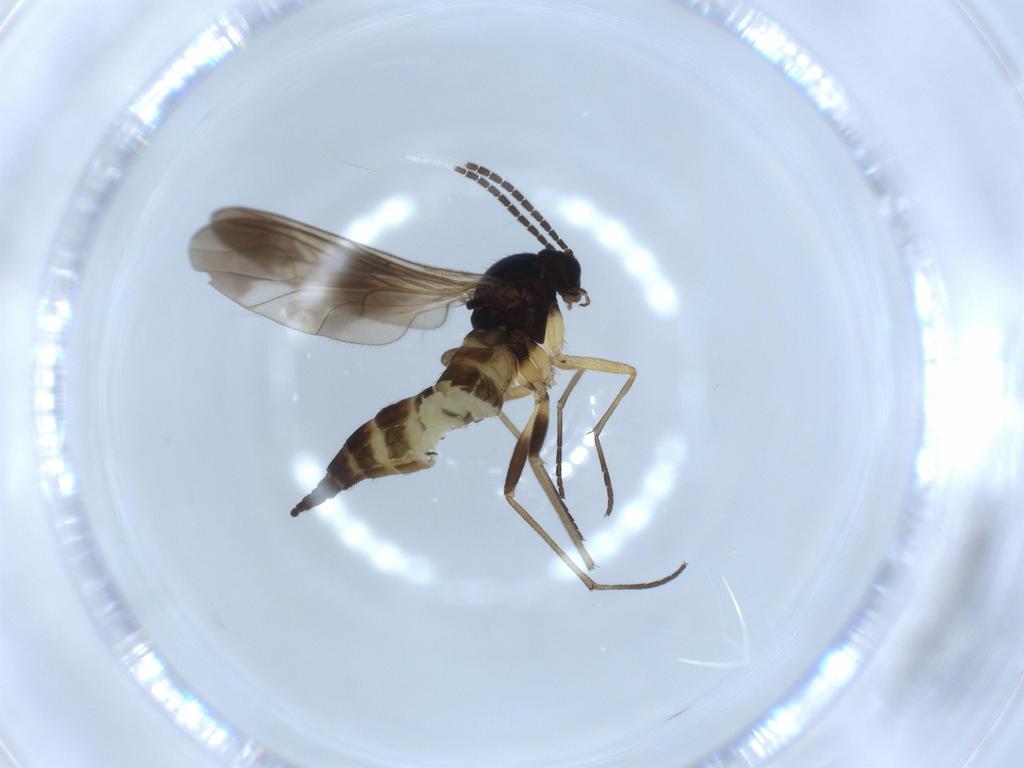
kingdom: Animalia
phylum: Arthropoda
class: Insecta
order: Diptera
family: Sciaridae
